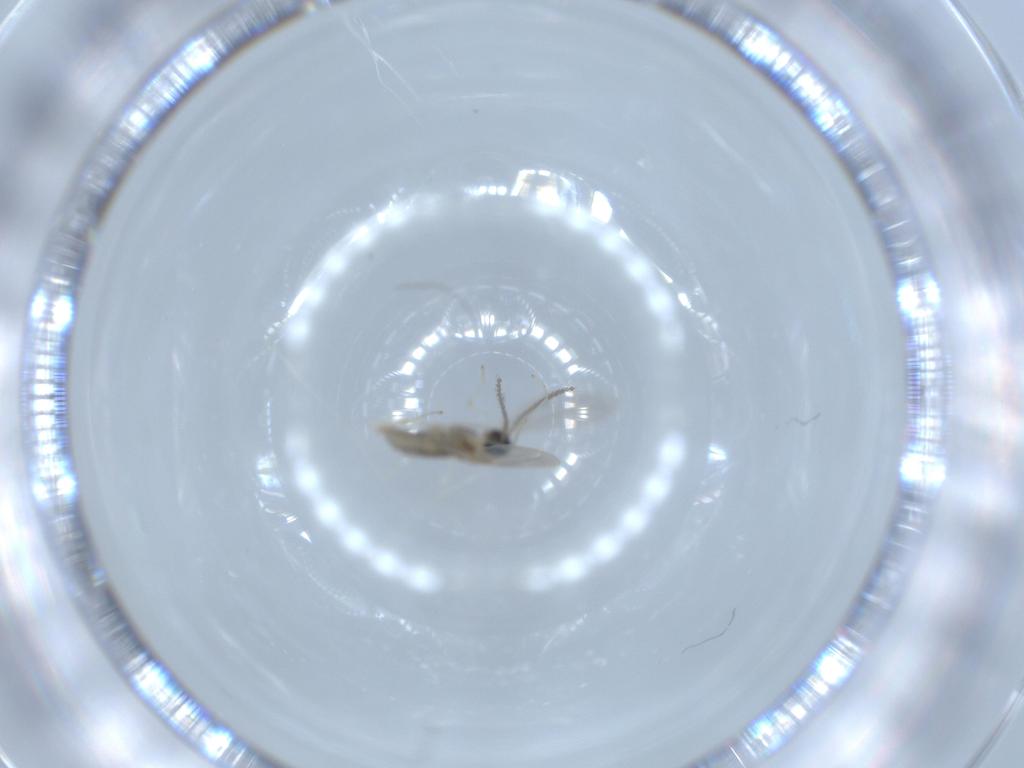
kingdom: Animalia
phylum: Arthropoda
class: Insecta
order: Diptera
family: Cecidomyiidae
